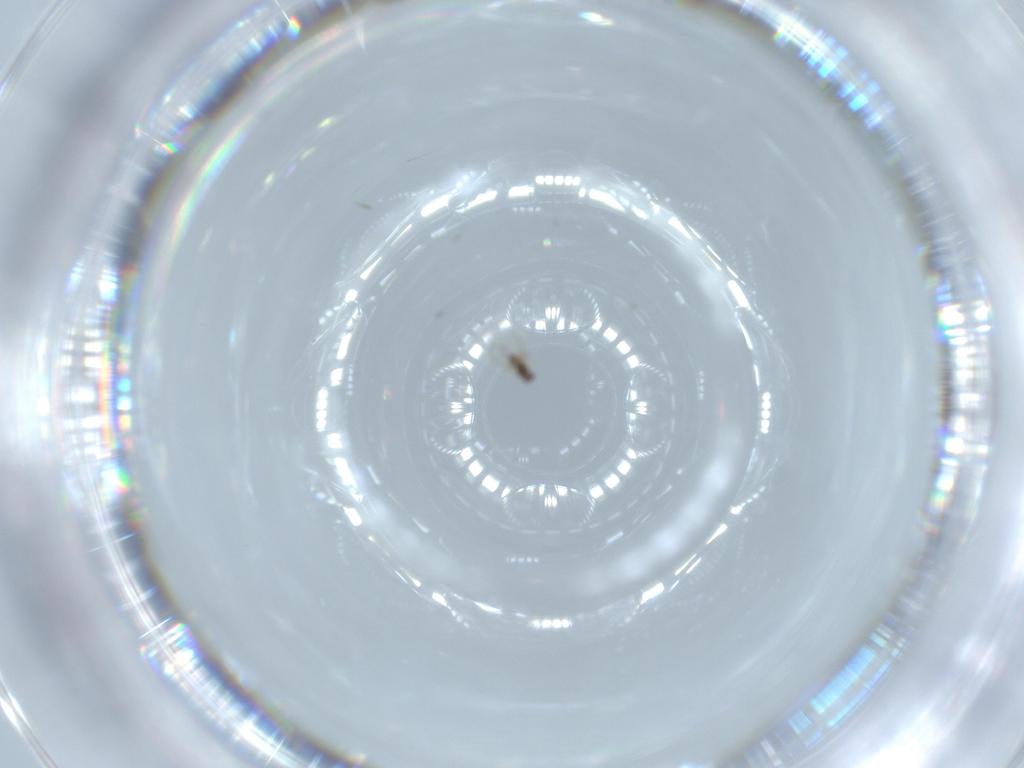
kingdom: Animalia
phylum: Arthropoda
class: Insecta
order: Hymenoptera
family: Formicidae
